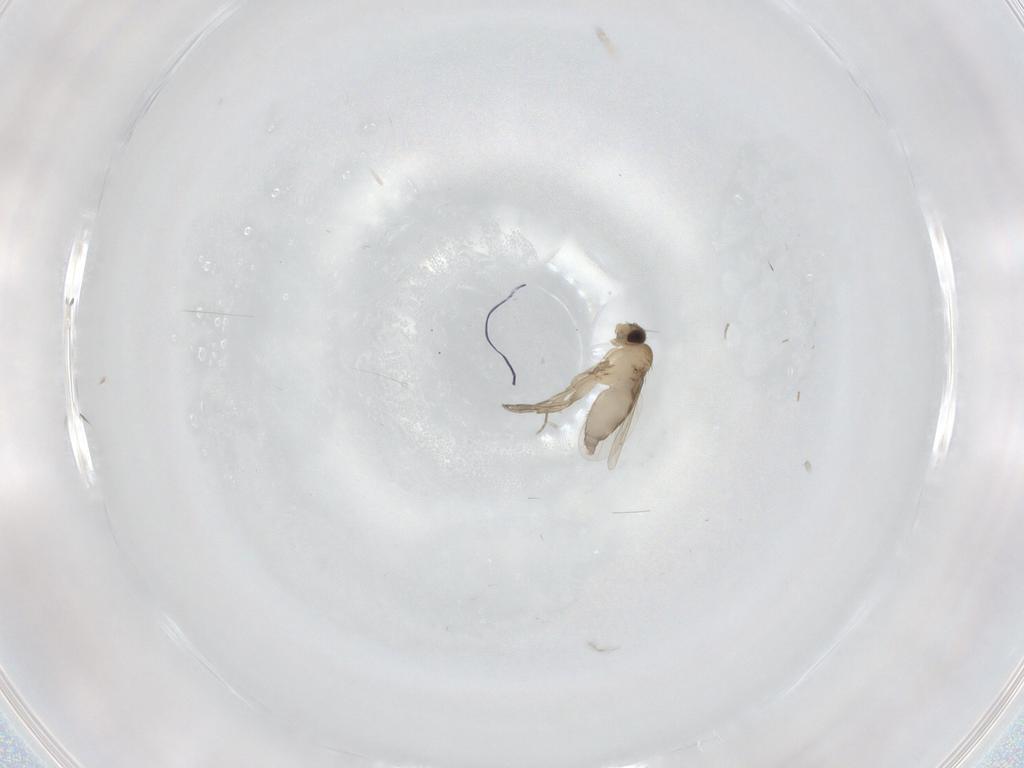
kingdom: Animalia
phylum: Arthropoda
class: Insecta
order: Diptera
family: Phoridae
